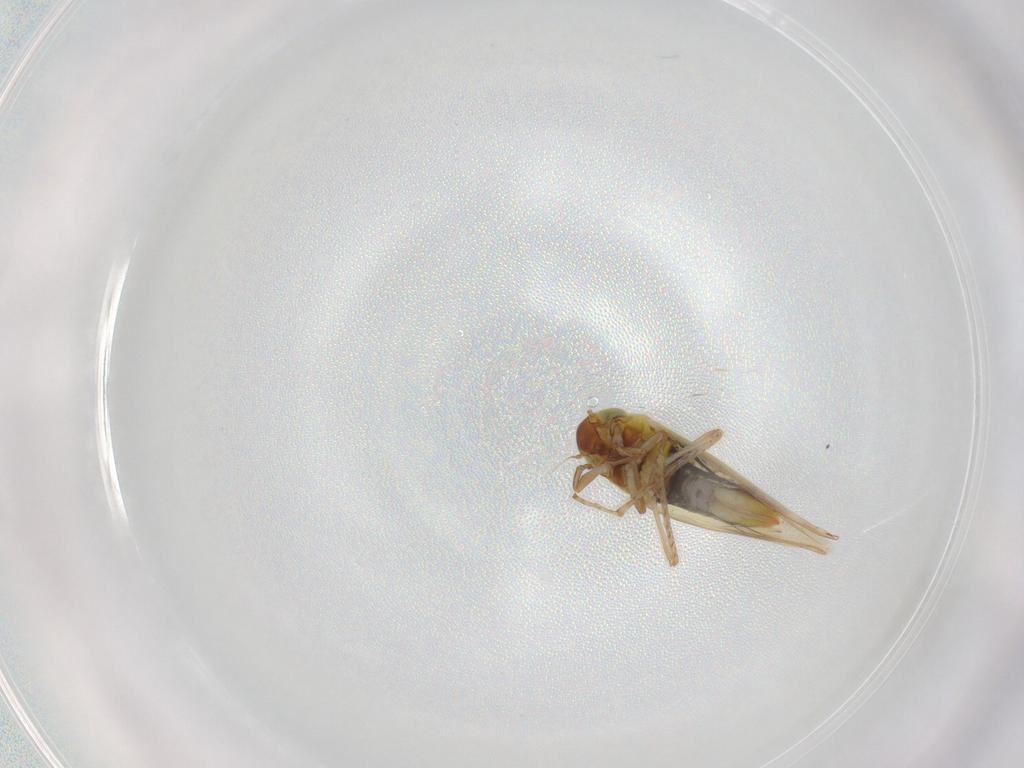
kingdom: Animalia
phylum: Arthropoda
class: Insecta
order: Hemiptera
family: Cicadellidae
